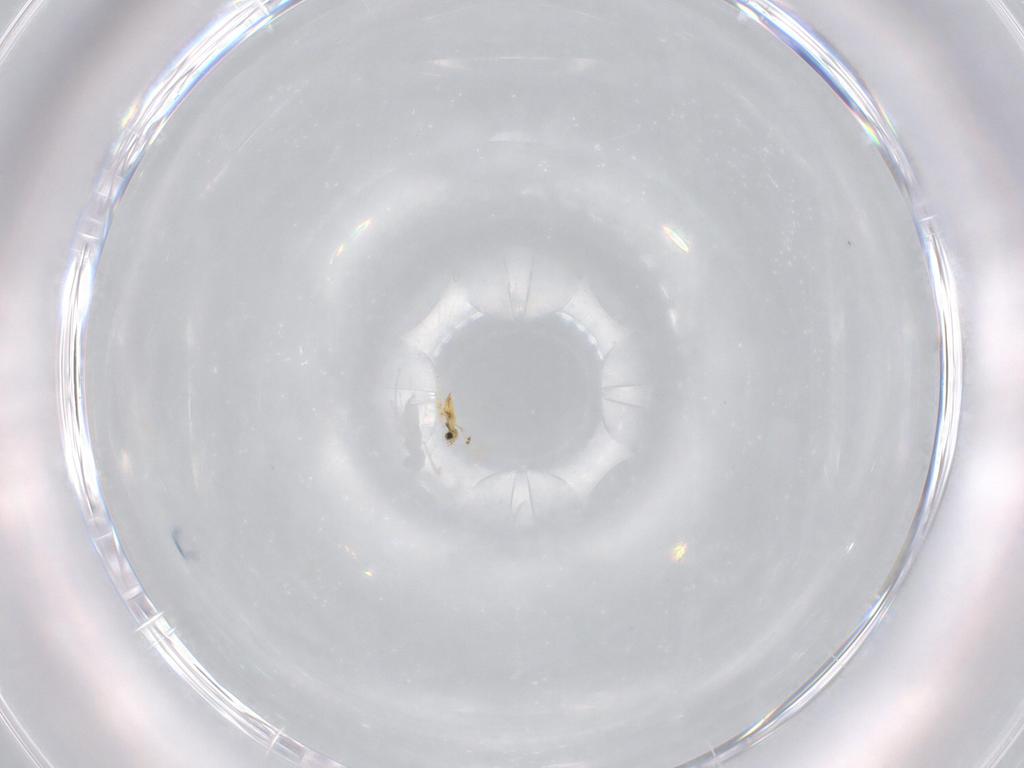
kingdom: Animalia
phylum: Arthropoda
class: Insecta
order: Hymenoptera
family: Trichogrammatidae
